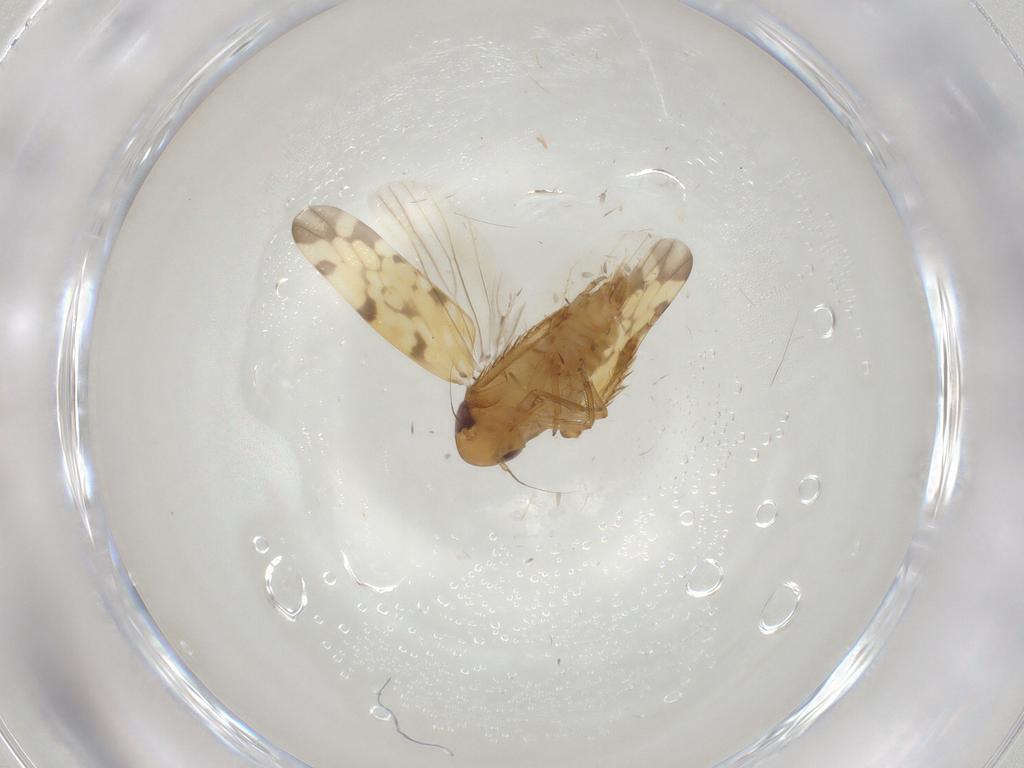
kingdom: Animalia
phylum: Arthropoda
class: Insecta
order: Hemiptera
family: Cicadellidae
